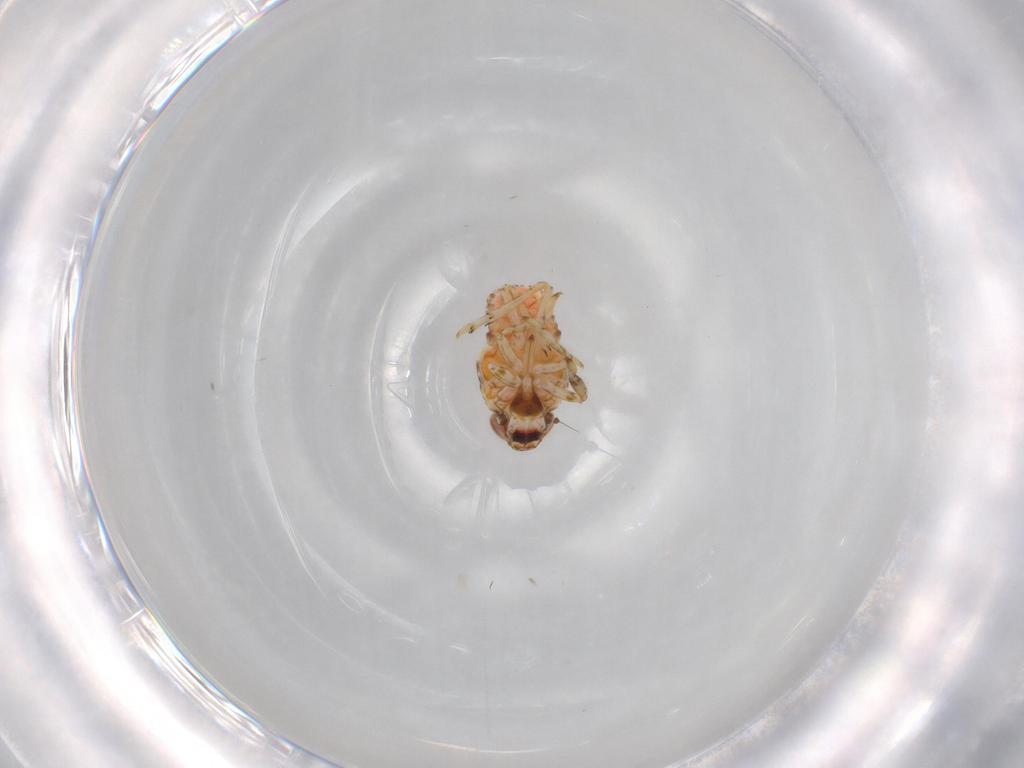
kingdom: Animalia
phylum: Arthropoda
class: Insecta
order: Hemiptera
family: Issidae
